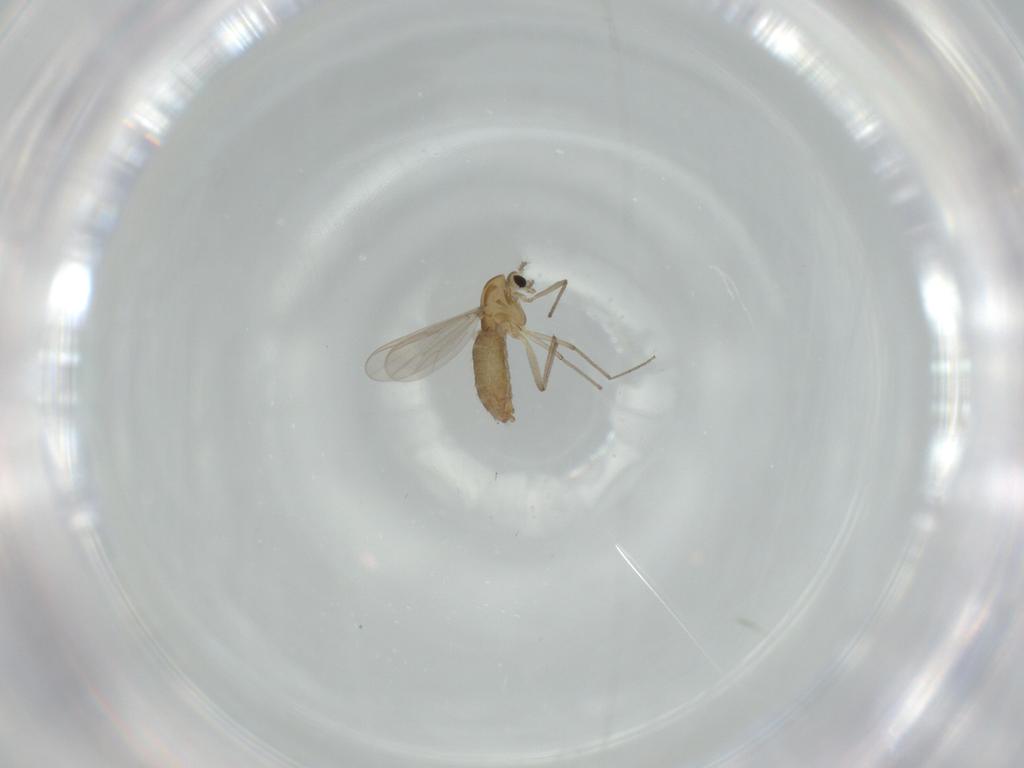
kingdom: Animalia
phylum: Arthropoda
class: Insecta
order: Diptera
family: Chironomidae
